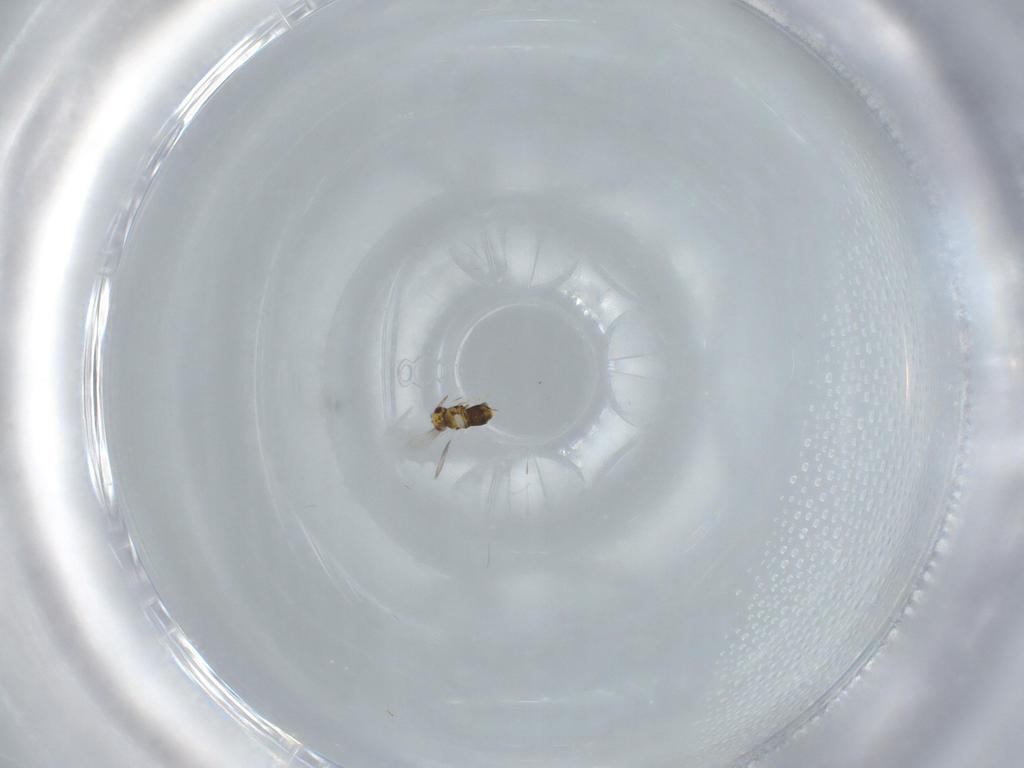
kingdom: Animalia
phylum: Arthropoda
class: Insecta
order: Hymenoptera
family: Aphelinidae
